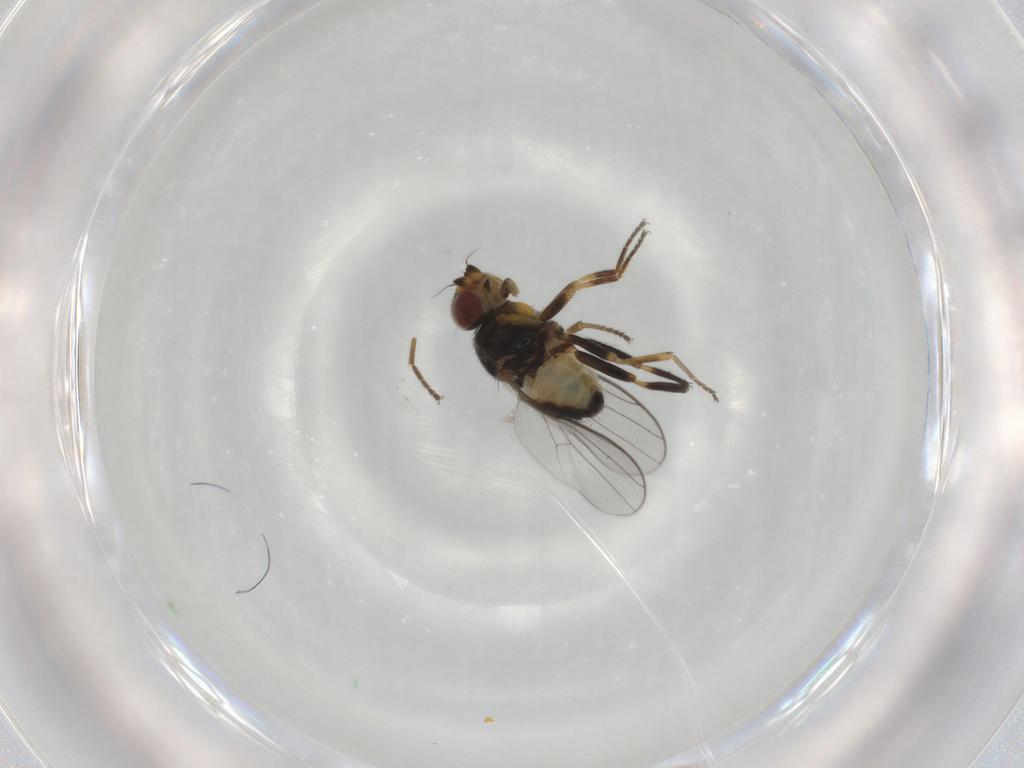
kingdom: Animalia
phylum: Arthropoda
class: Insecta
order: Diptera
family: Chloropidae
